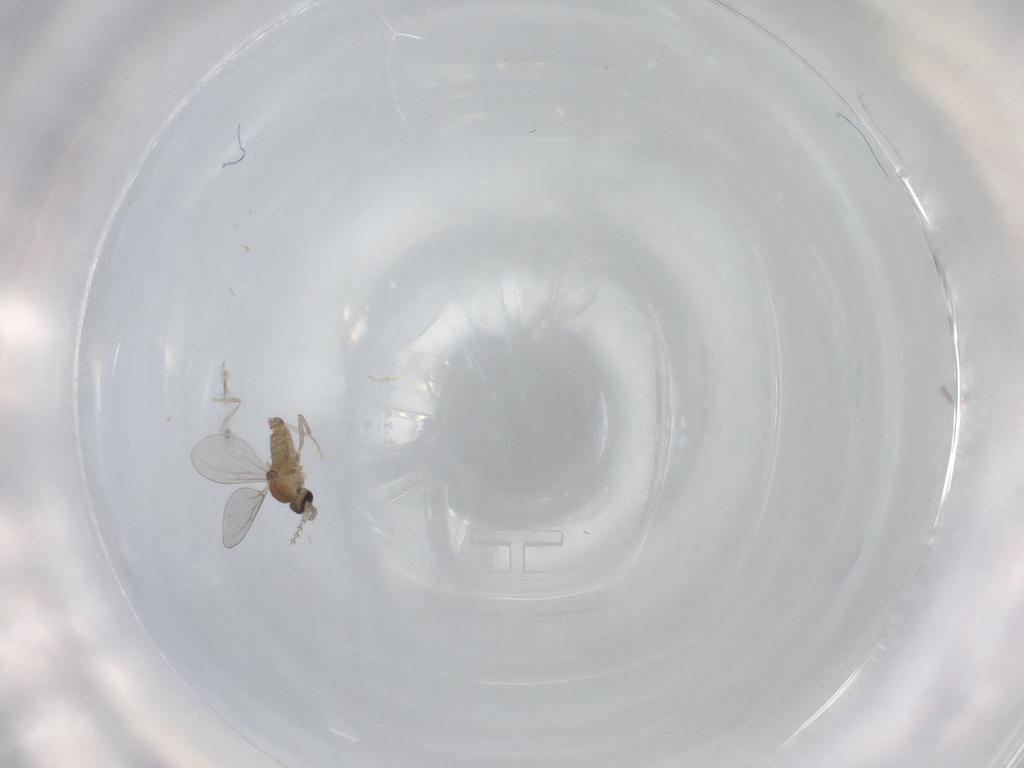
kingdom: Animalia
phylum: Arthropoda
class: Insecta
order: Diptera
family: Cecidomyiidae
